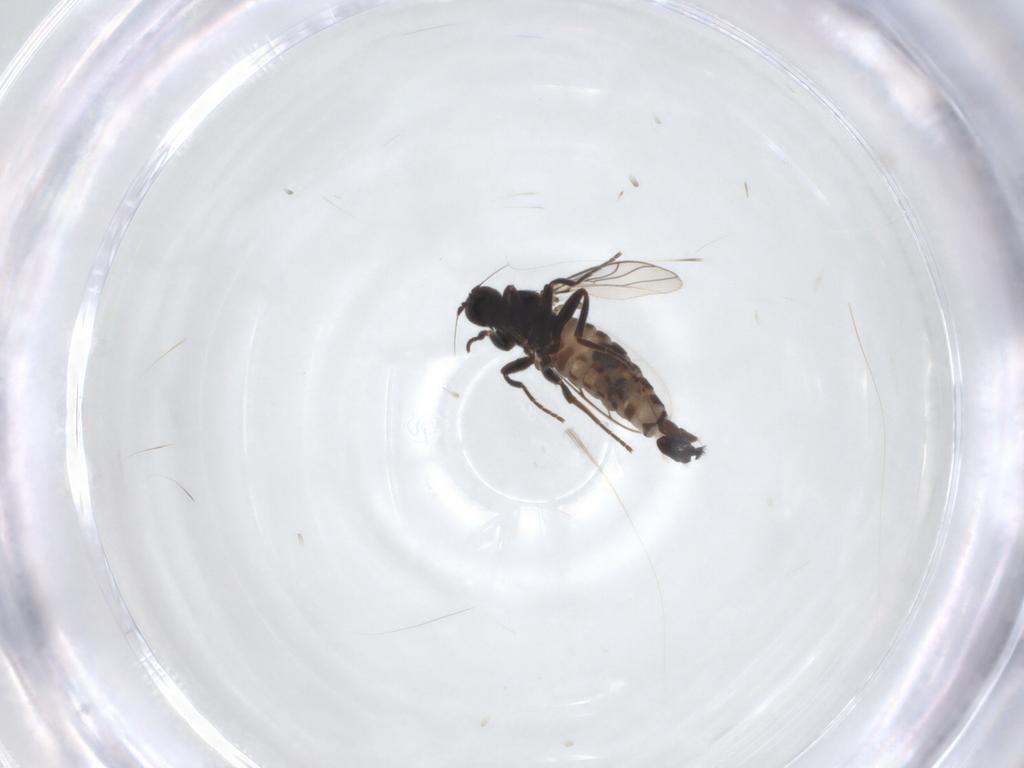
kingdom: Animalia
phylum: Arthropoda
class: Insecta
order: Diptera
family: Hybotidae
